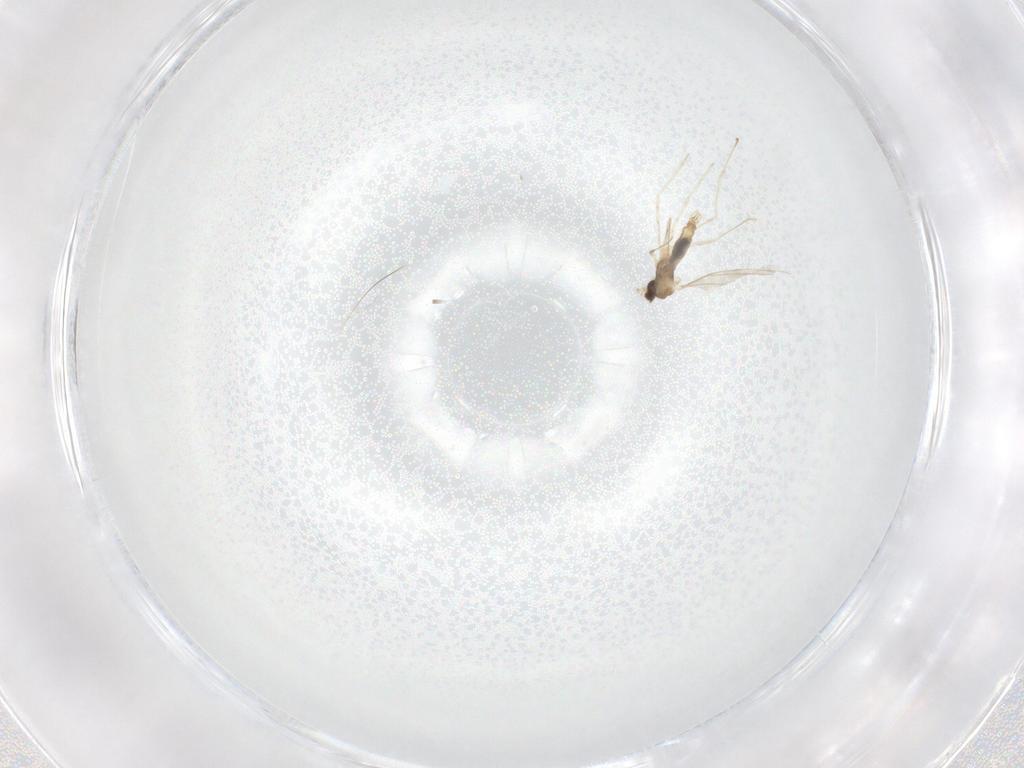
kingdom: Animalia
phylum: Arthropoda
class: Insecta
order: Diptera
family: Cecidomyiidae
